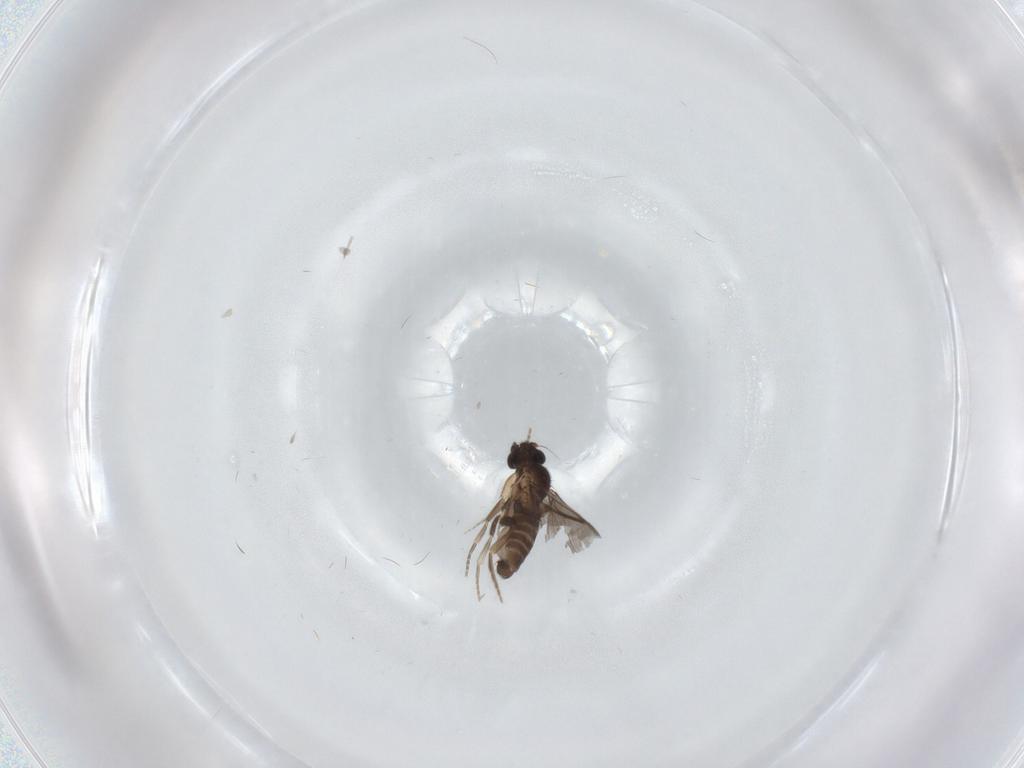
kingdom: Animalia
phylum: Arthropoda
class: Insecta
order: Diptera
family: Cecidomyiidae
